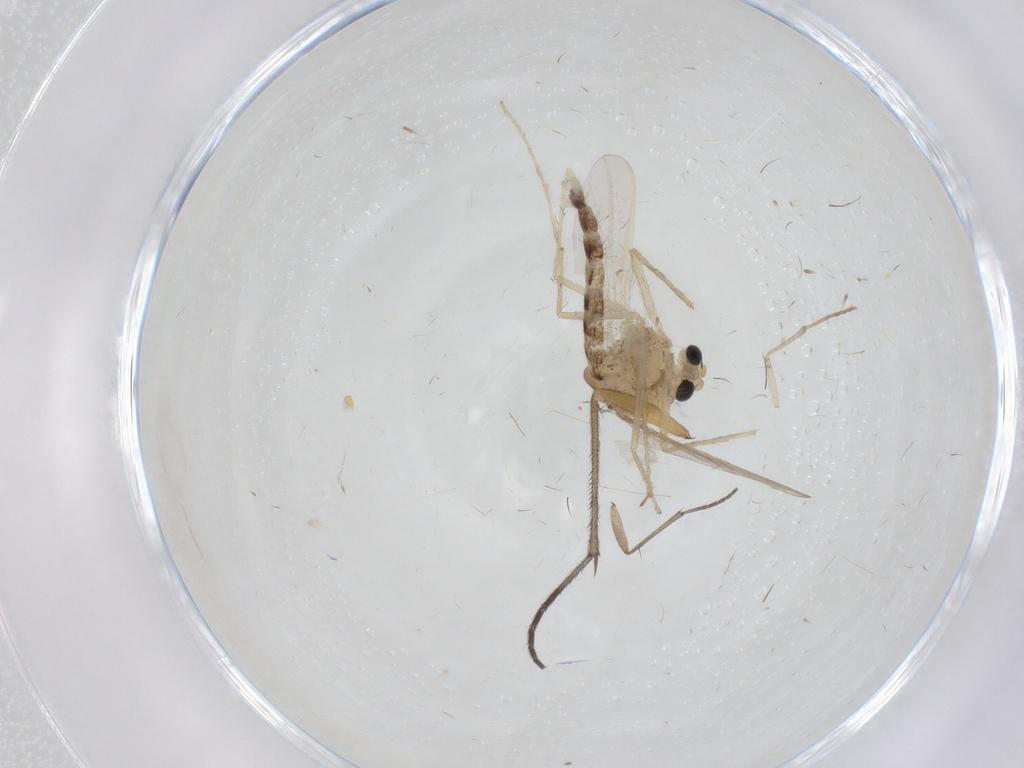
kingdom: Animalia
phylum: Arthropoda
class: Insecta
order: Diptera
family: Chironomidae
